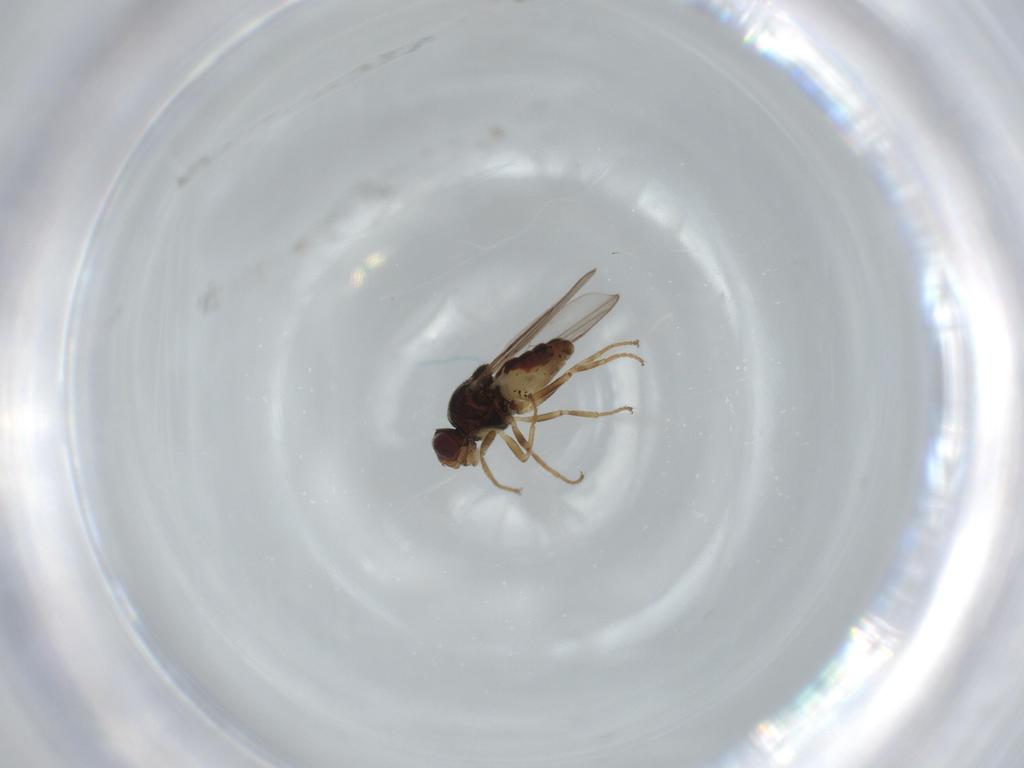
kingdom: Animalia
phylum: Arthropoda
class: Insecta
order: Diptera
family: Chloropidae
